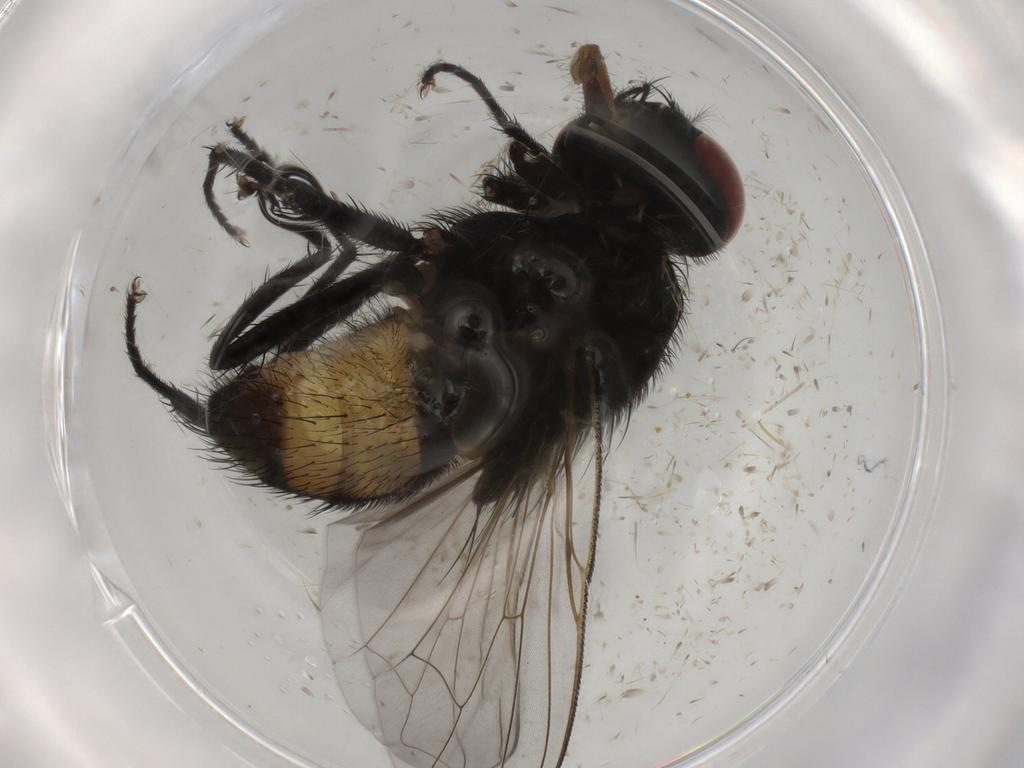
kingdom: Animalia
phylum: Arthropoda
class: Insecta
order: Diptera
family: Muscidae
